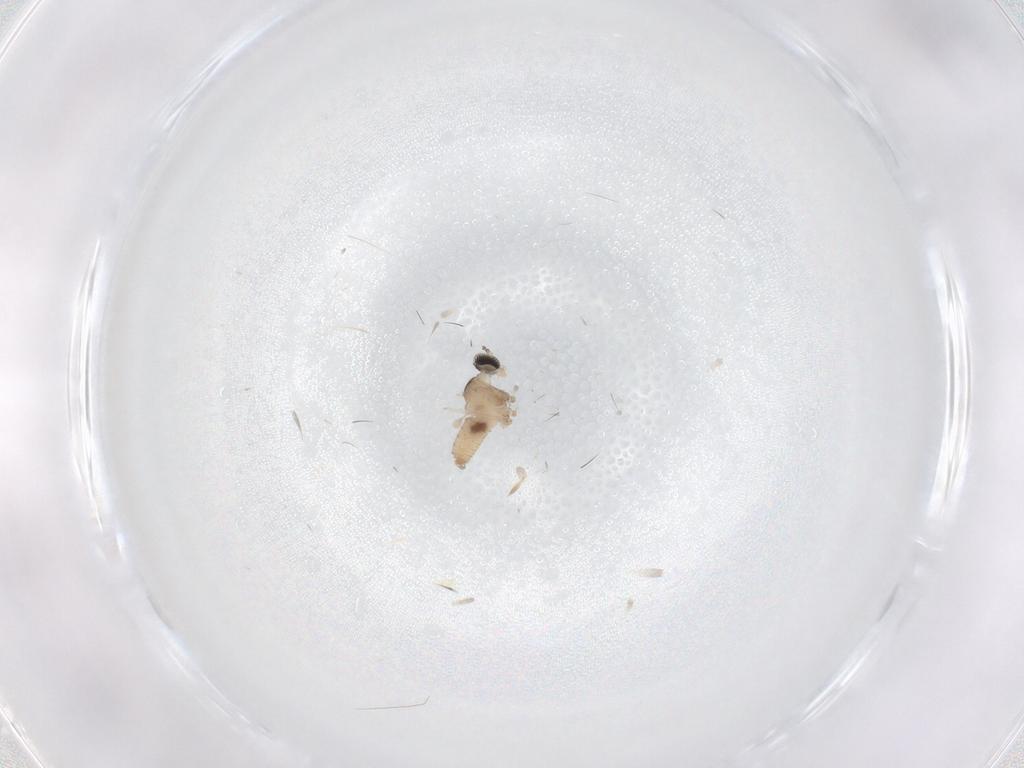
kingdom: Animalia
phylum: Arthropoda
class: Insecta
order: Diptera
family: Cecidomyiidae
